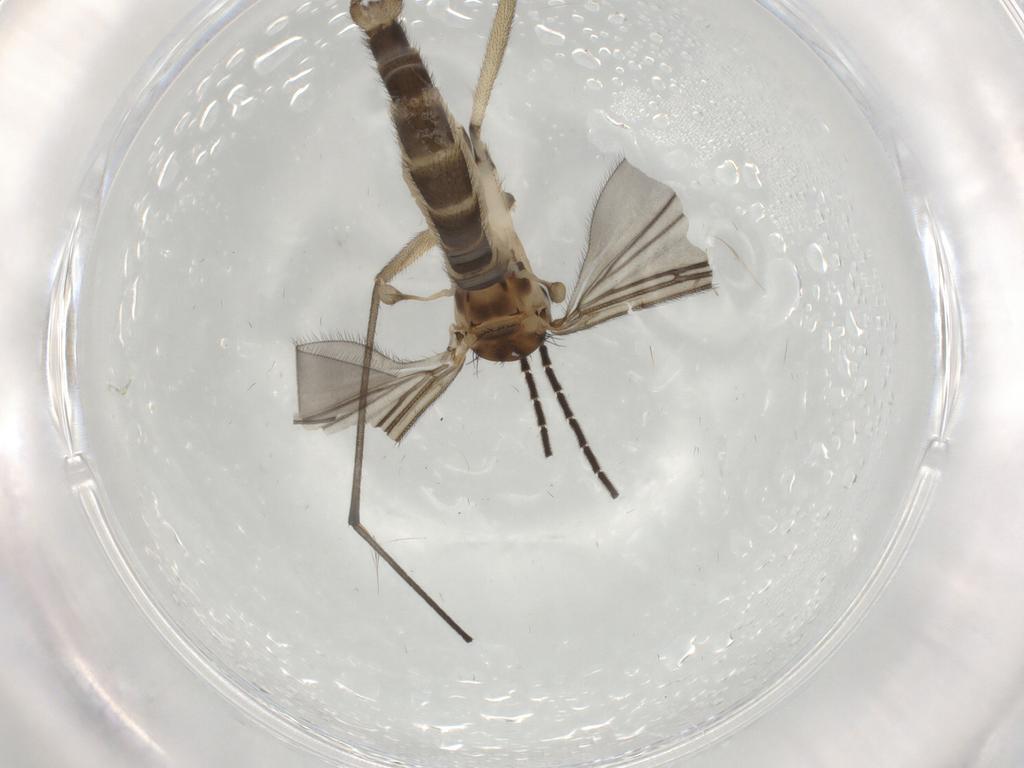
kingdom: Animalia
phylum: Arthropoda
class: Insecta
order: Diptera
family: Sciaridae
